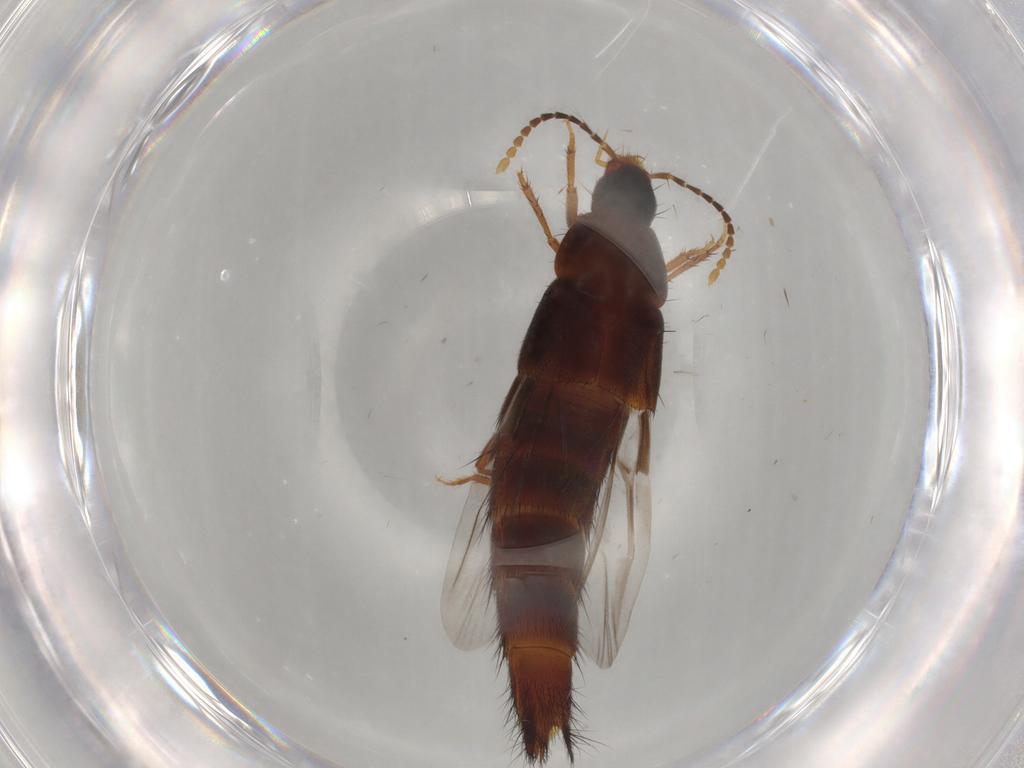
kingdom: Animalia
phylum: Arthropoda
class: Insecta
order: Coleoptera
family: Staphylinidae
